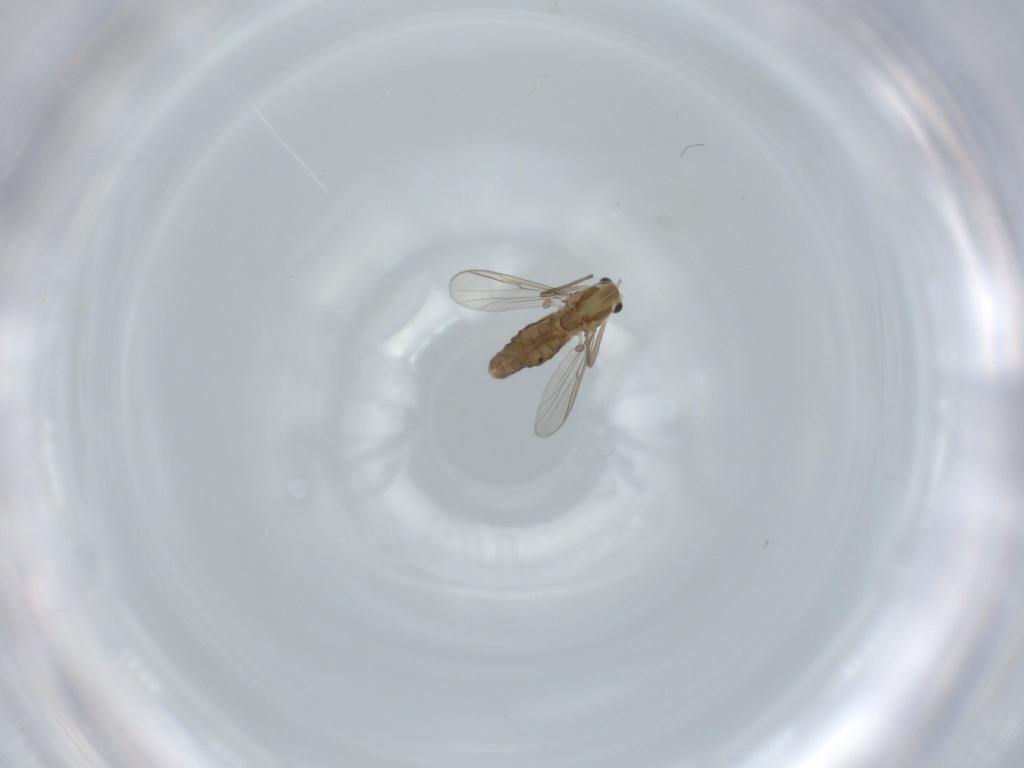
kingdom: Animalia
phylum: Arthropoda
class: Insecta
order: Diptera
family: Chironomidae
